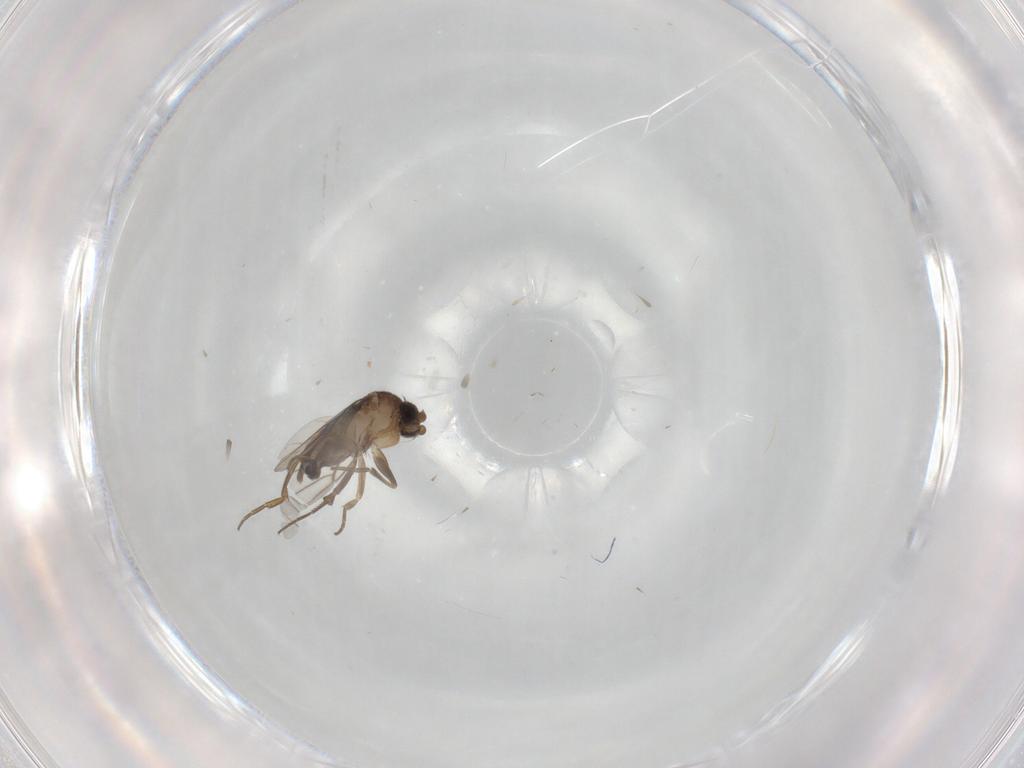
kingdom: Animalia
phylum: Arthropoda
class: Insecta
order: Diptera
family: Phoridae
